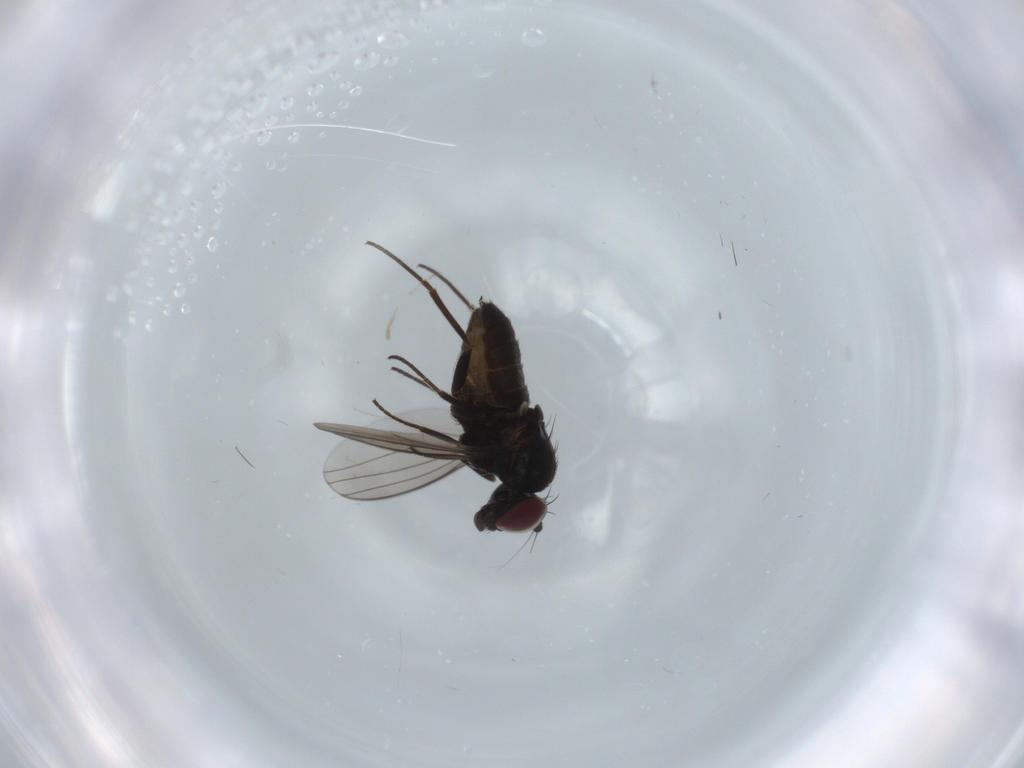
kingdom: Animalia
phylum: Arthropoda
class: Insecta
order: Diptera
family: Cecidomyiidae
